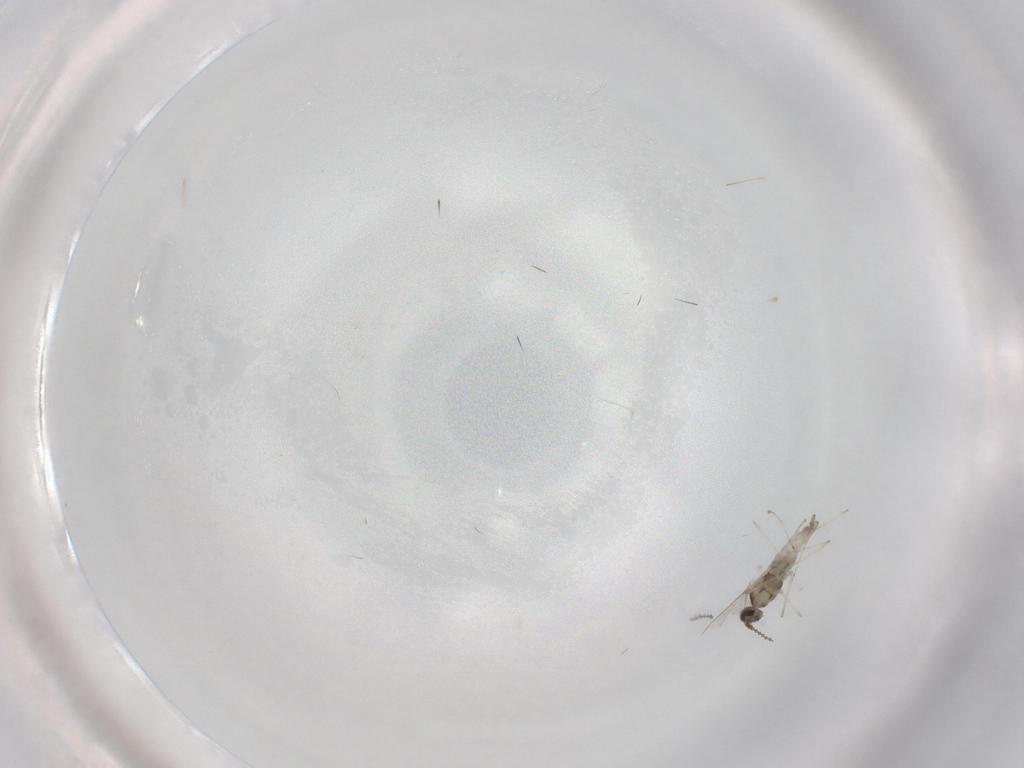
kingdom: Animalia
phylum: Arthropoda
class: Insecta
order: Diptera
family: Cecidomyiidae
